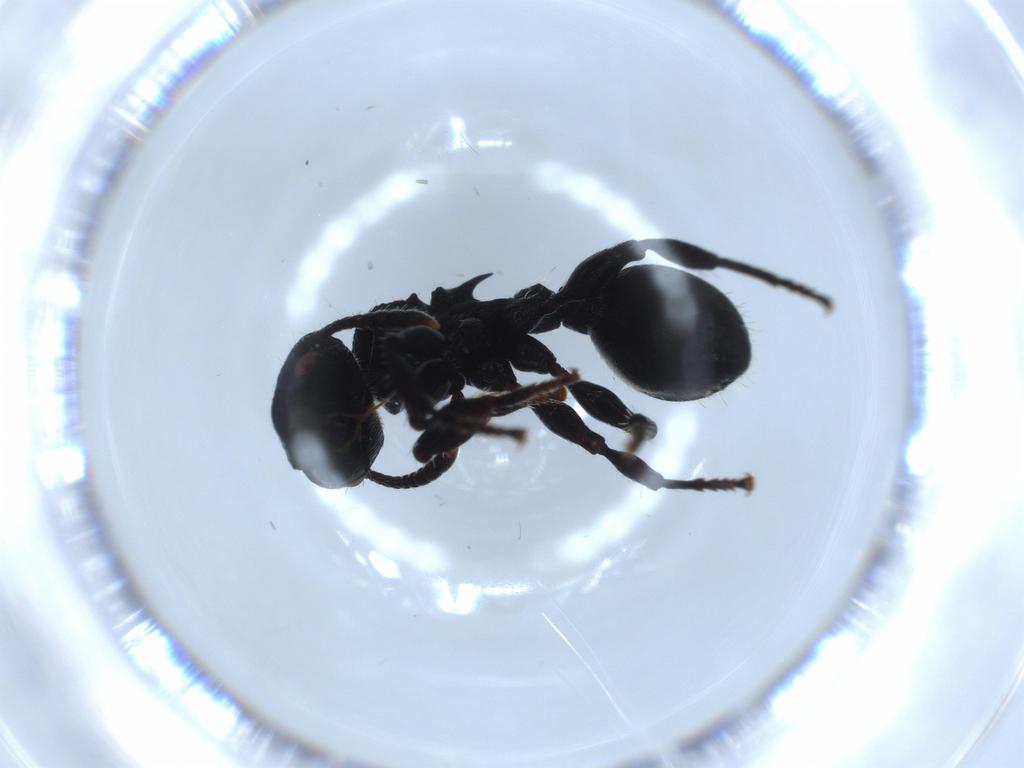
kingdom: Animalia
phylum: Arthropoda
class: Insecta
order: Hymenoptera
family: Formicidae
